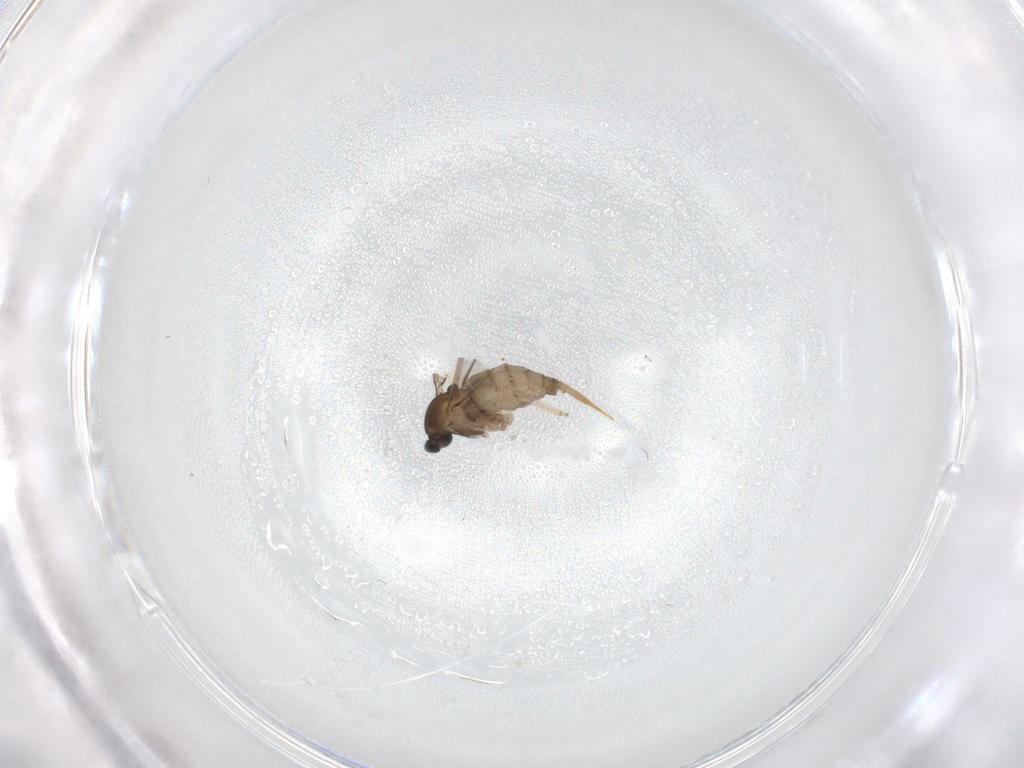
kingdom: Animalia
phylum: Arthropoda
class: Insecta
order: Diptera
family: Cecidomyiidae
